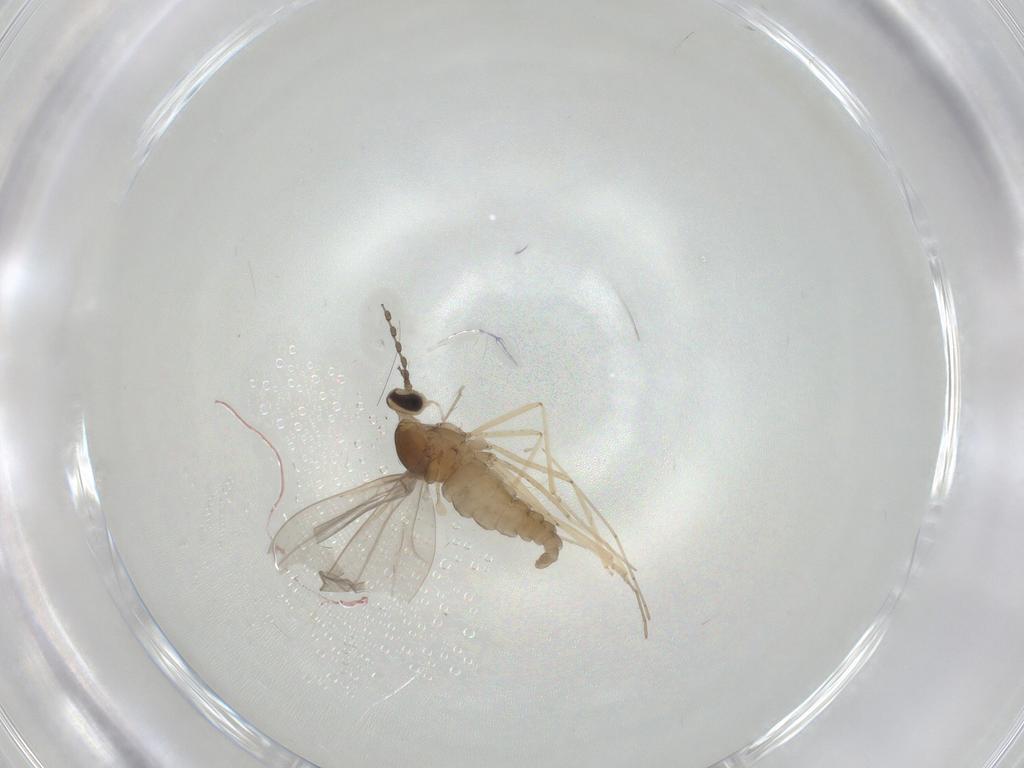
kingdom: Animalia
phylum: Arthropoda
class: Insecta
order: Diptera
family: Cecidomyiidae
